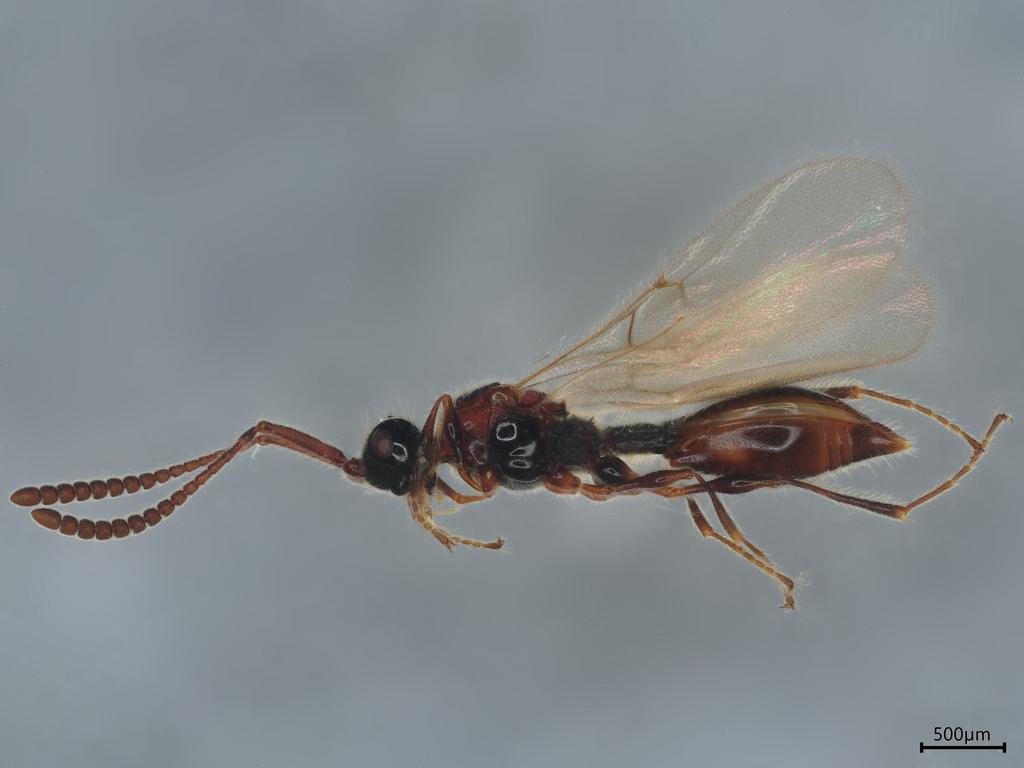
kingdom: Animalia
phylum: Arthropoda
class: Insecta
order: Hymenoptera
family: Diapriidae
